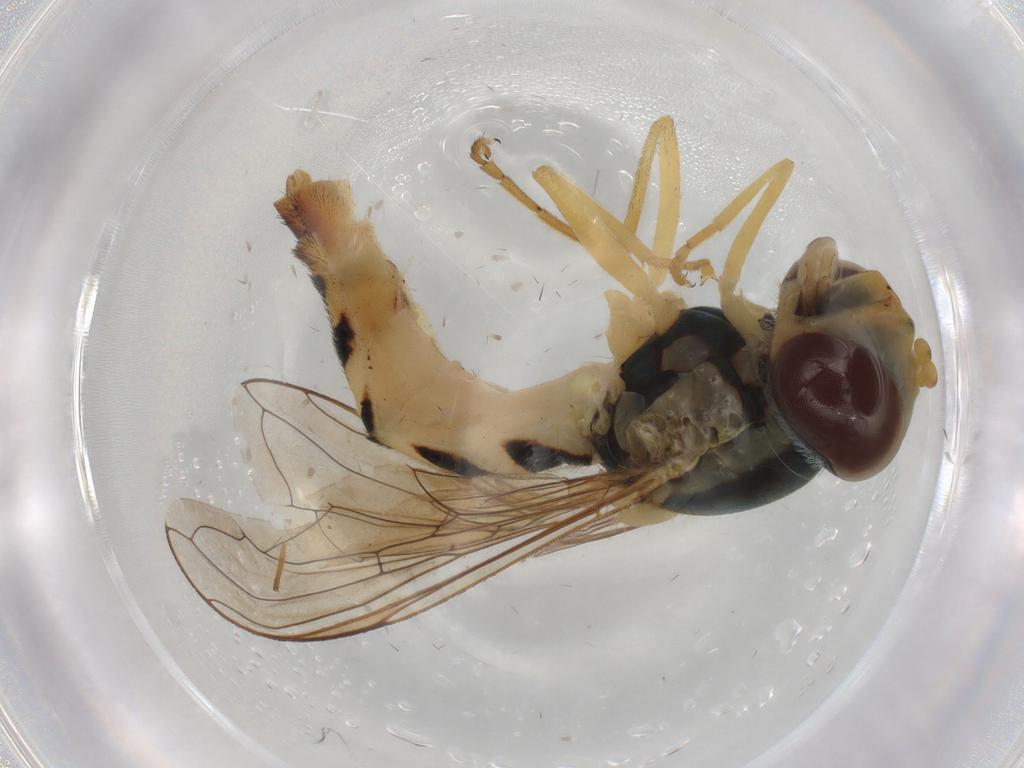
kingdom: Animalia
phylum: Arthropoda
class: Insecta
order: Diptera
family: Syrphidae
